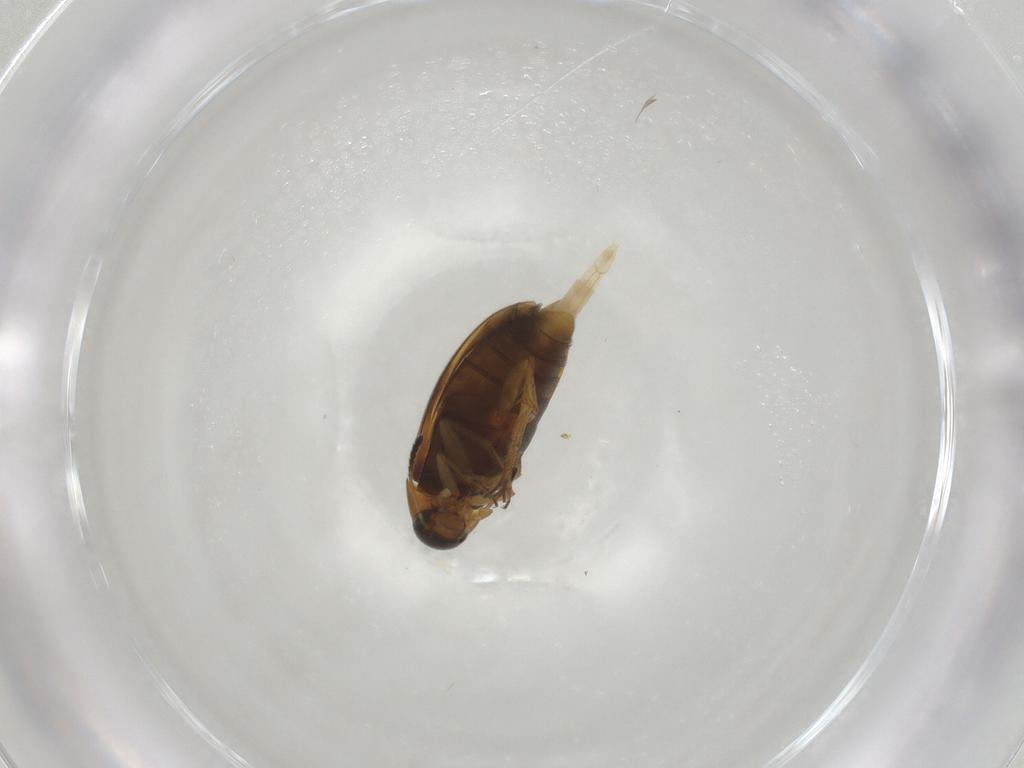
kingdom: Animalia
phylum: Arthropoda
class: Insecta
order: Coleoptera
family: Scraptiidae
